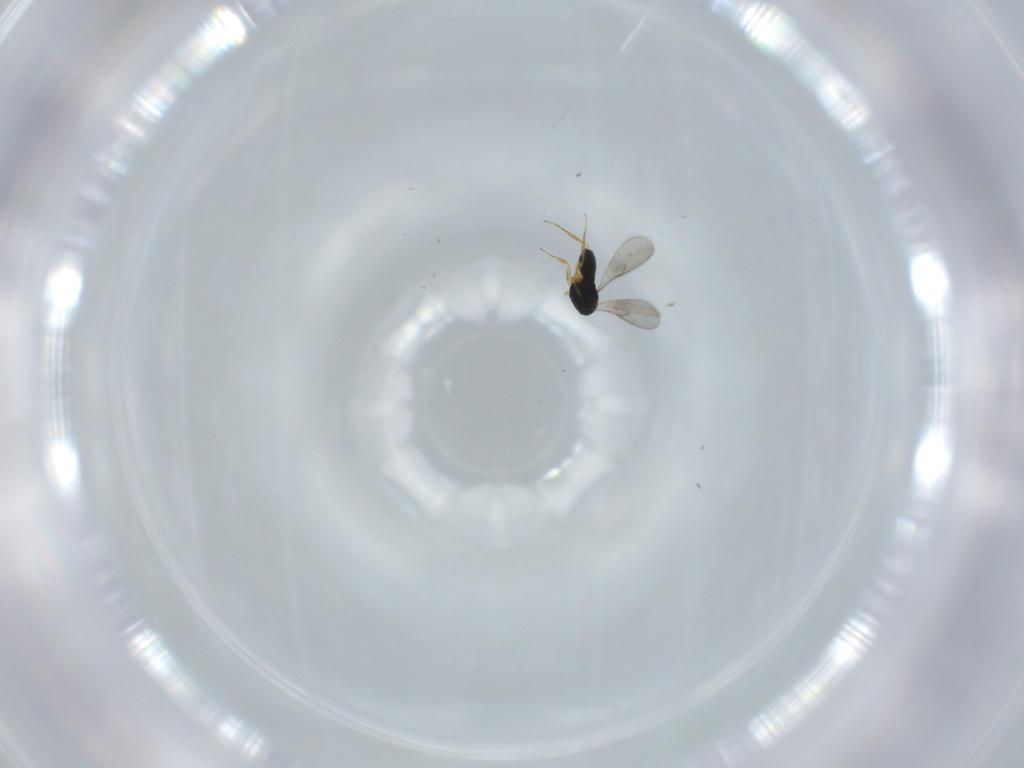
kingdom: Animalia
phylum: Arthropoda
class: Insecta
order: Hymenoptera
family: Scelionidae
